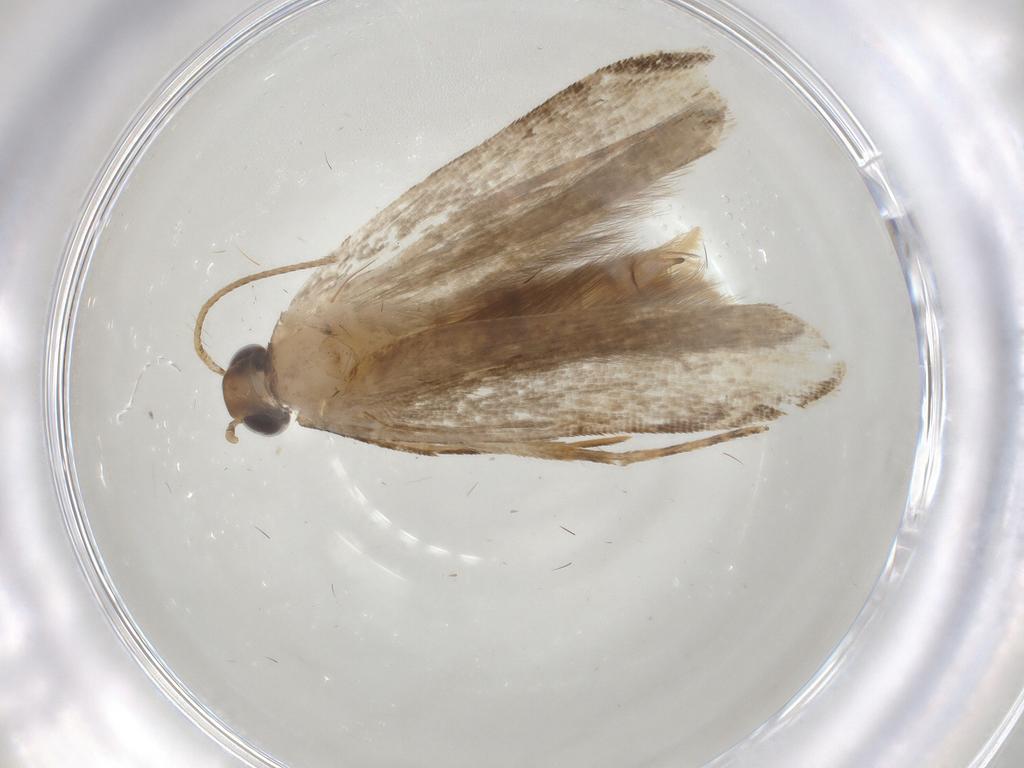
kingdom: Animalia
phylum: Arthropoda
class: Insecta
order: Lepidoptera
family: Gelechiidae
